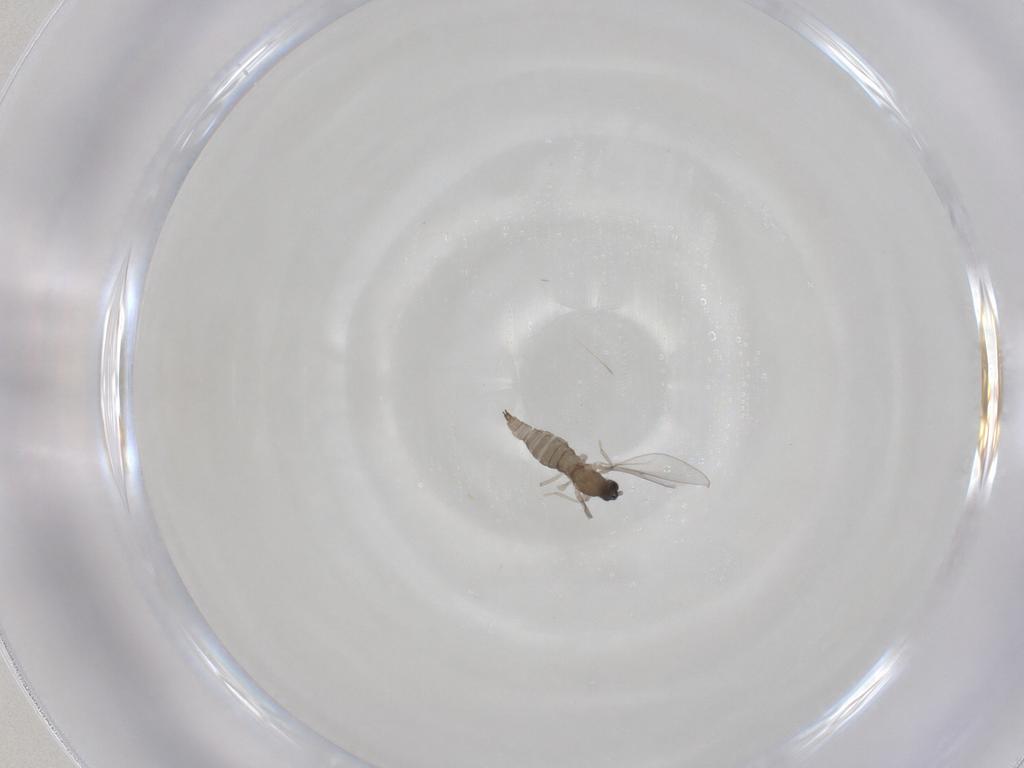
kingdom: Animalia
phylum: Arthropoda
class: Insecta
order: Diptera
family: Cecidomyiidae
